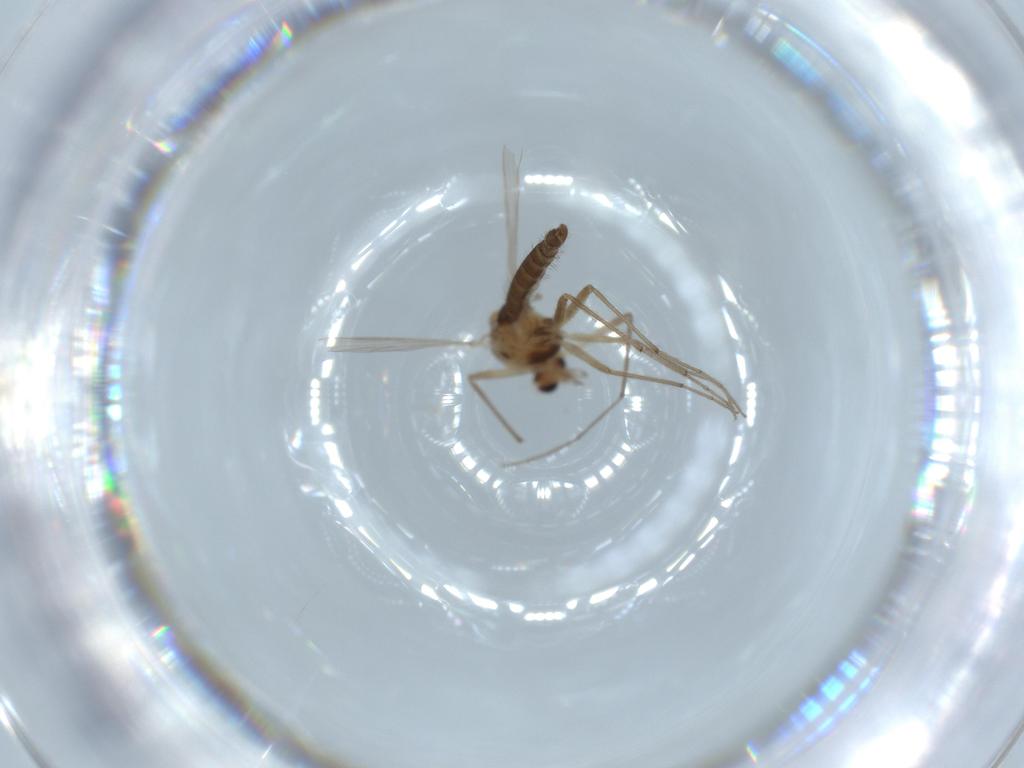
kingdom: Animalia
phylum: Arthropoda
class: Insecta
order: Diptera
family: Chironomidae
